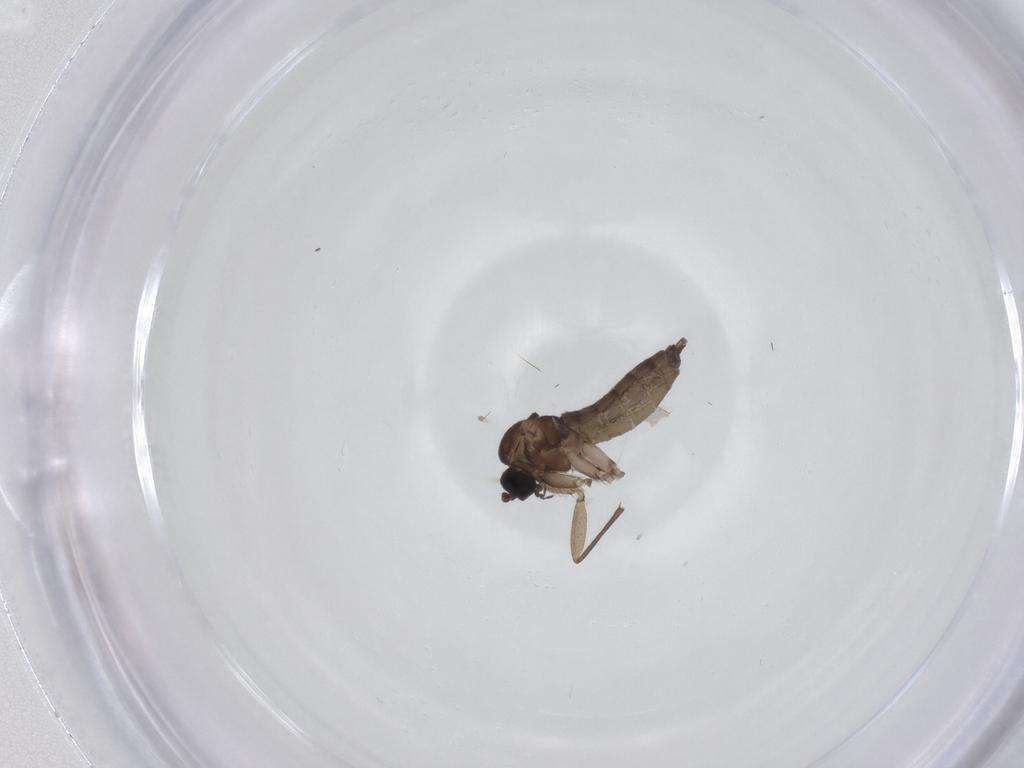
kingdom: Animalia
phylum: Arthropoda
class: Insecta
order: Diptera
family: Sciaridae
